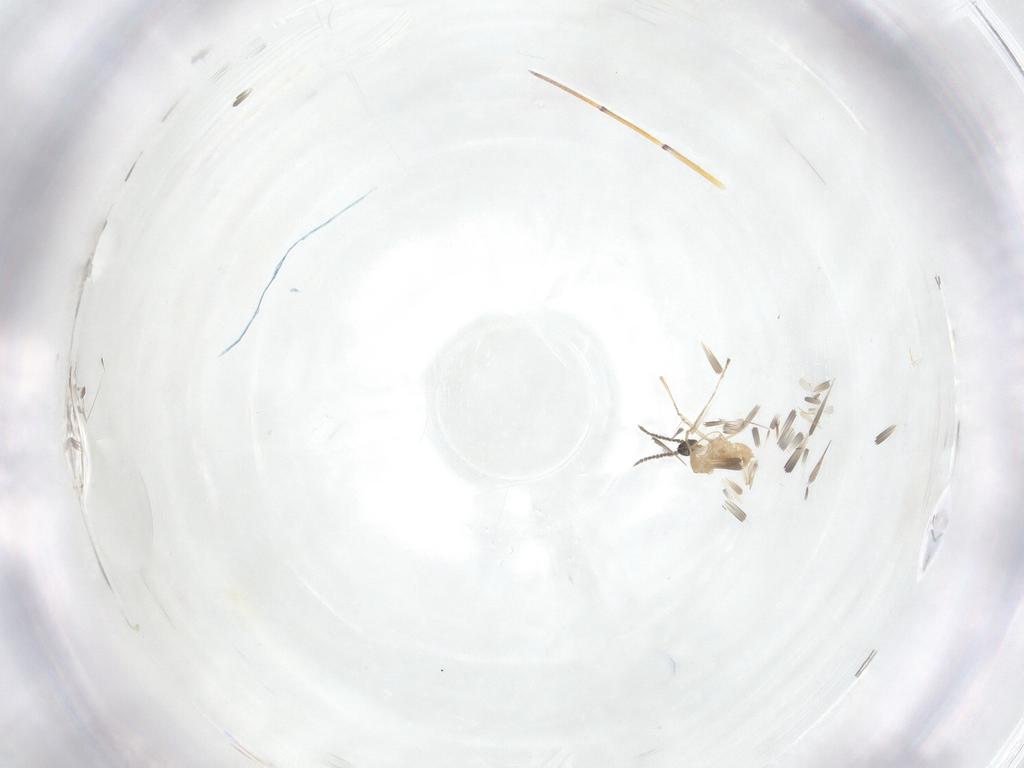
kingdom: Animalia
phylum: Arthropoda
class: Insecta
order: Diptera
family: Cecidomyiidae
